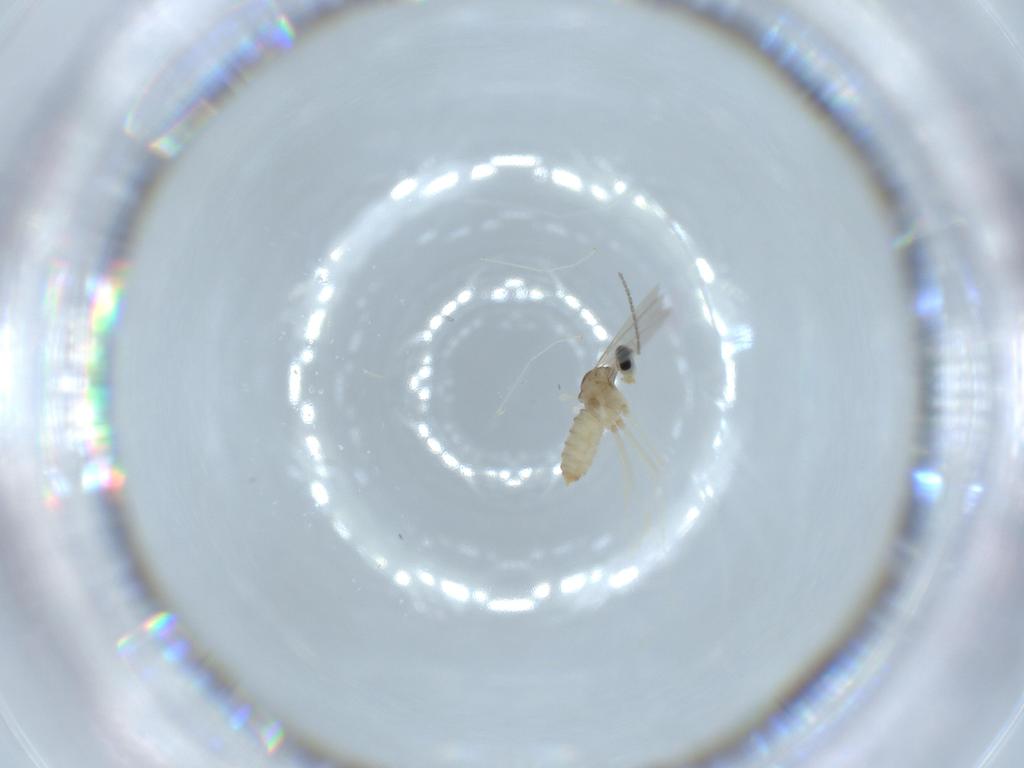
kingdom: Animalia
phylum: Arthropoda
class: Insecta
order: Diptera
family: Cecidomyiidae
